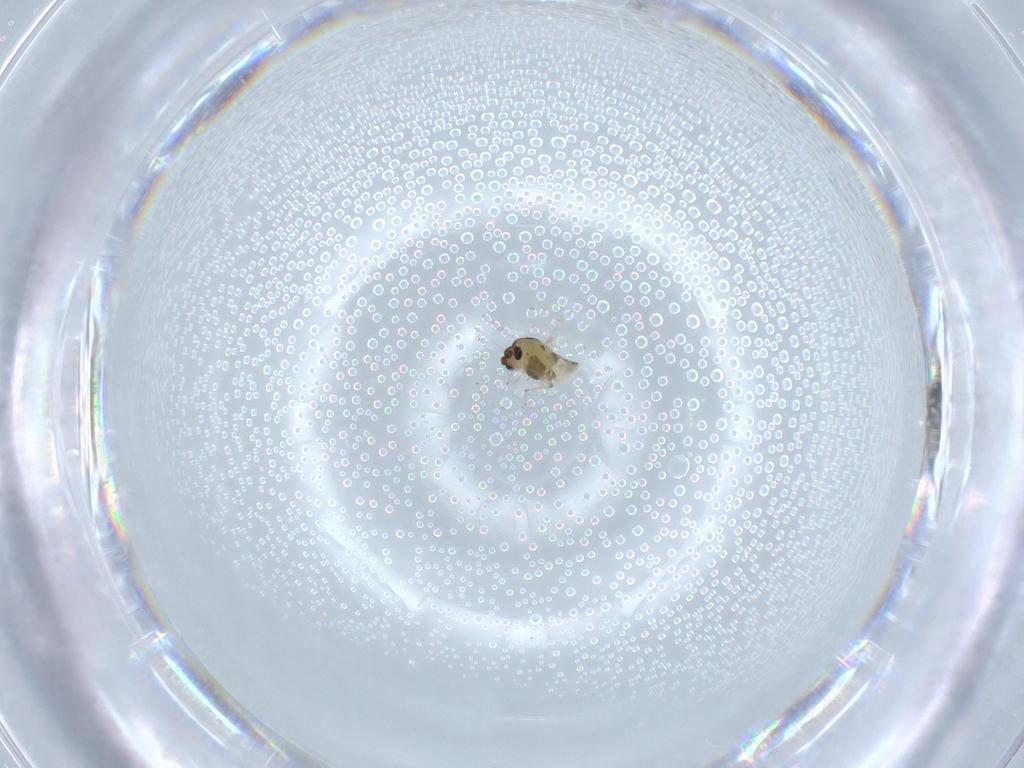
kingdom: Animalia
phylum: Arthropoda
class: Insecta
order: Diptera
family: Chironomidae
